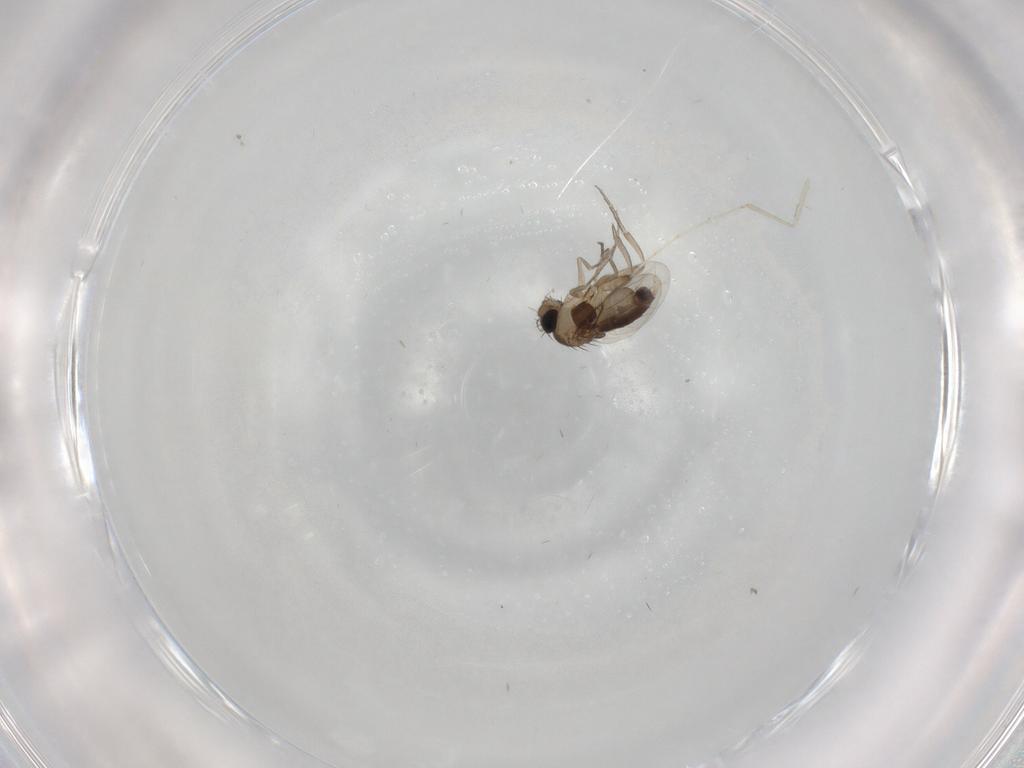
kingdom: Animalia
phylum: Arthropoda
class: Insecta
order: Diptera
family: Phoridae
